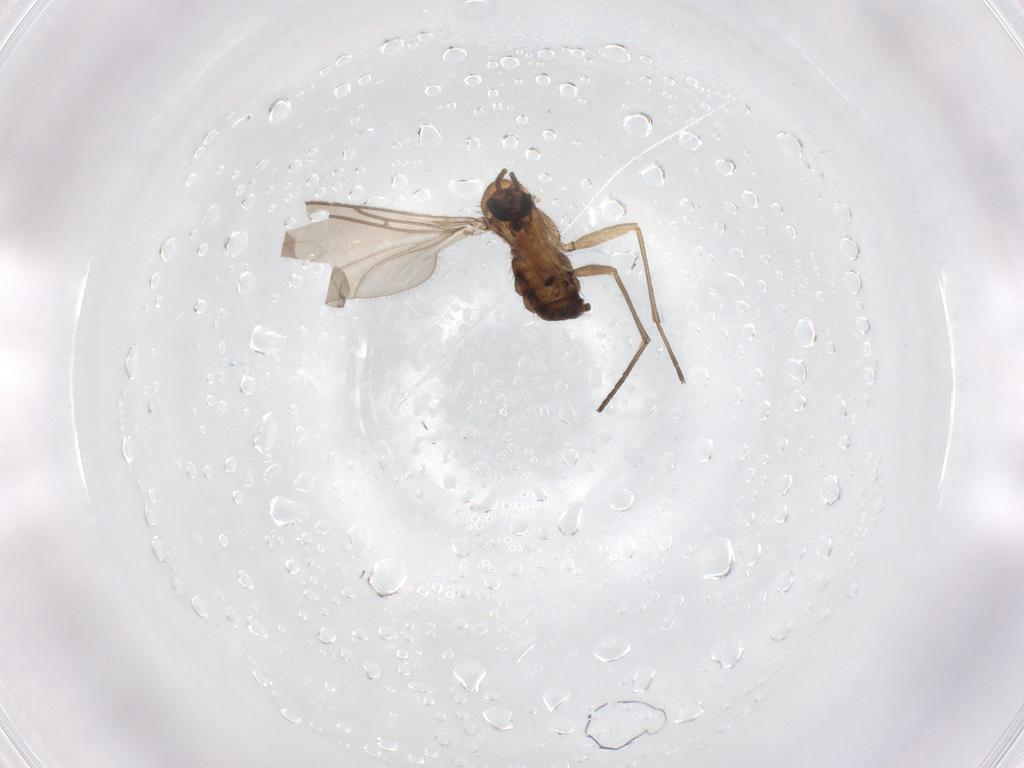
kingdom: Animalia
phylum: Arthropoda
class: Insecta
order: Diptera
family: Sciaridae
